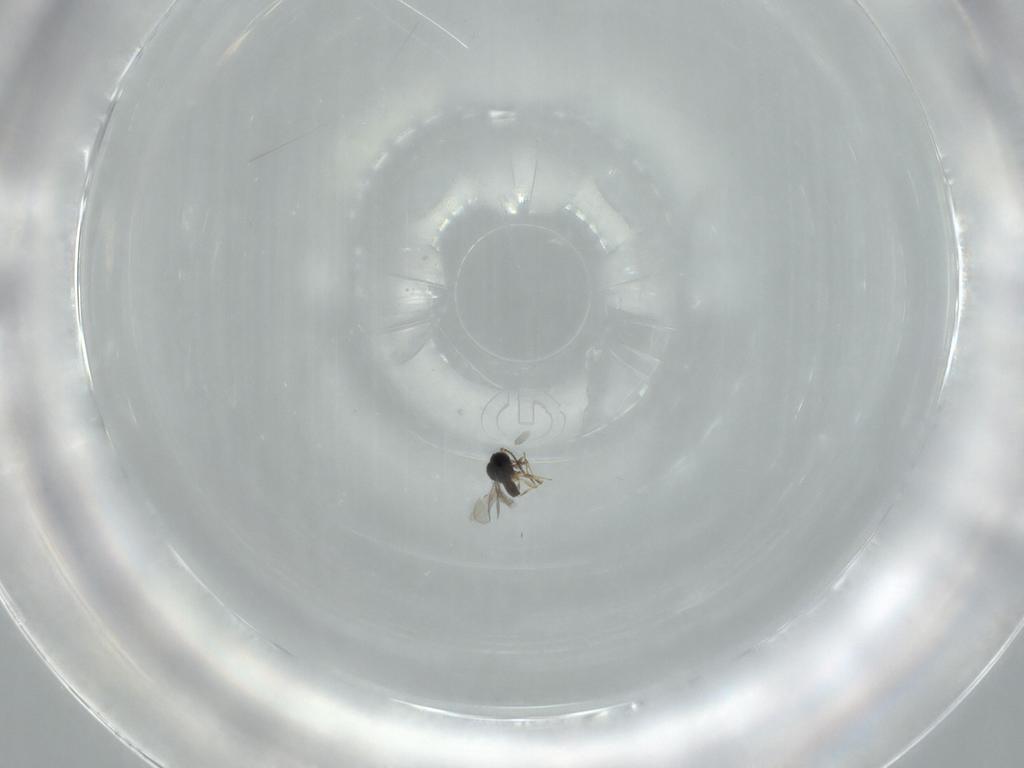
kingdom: Animalia
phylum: Arthropoda
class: Insecta
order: Hymenoptera
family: Scelionidae
